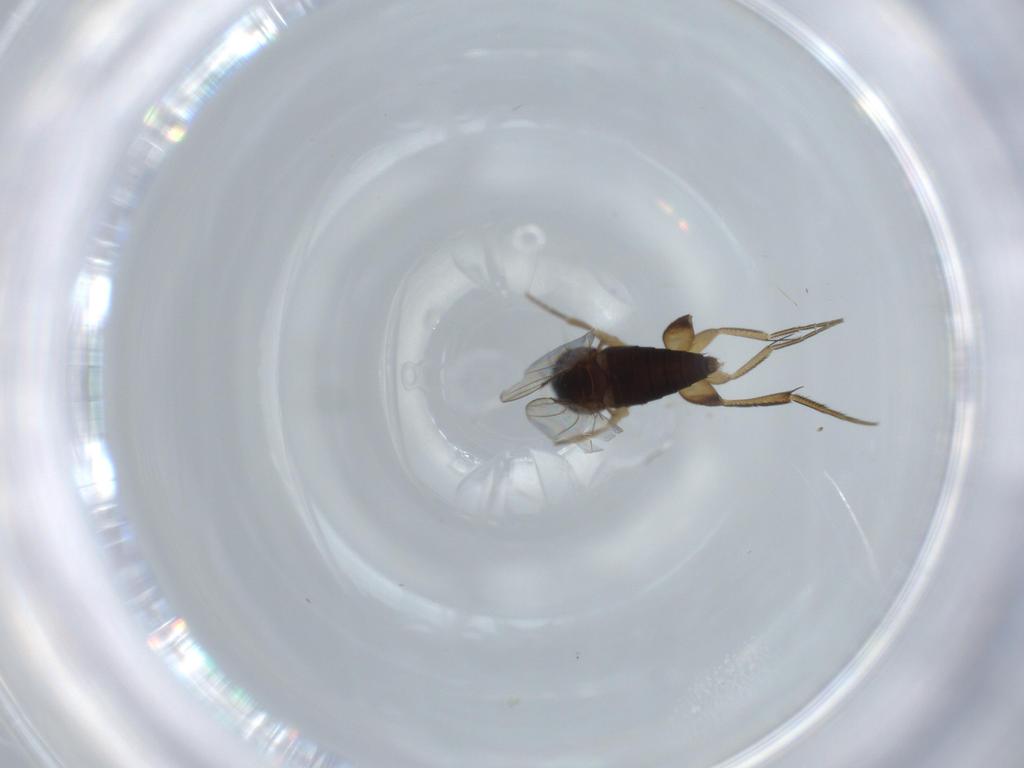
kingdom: Animalia
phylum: Arthropoda
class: Insecta
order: Diptera
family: Phoridae
